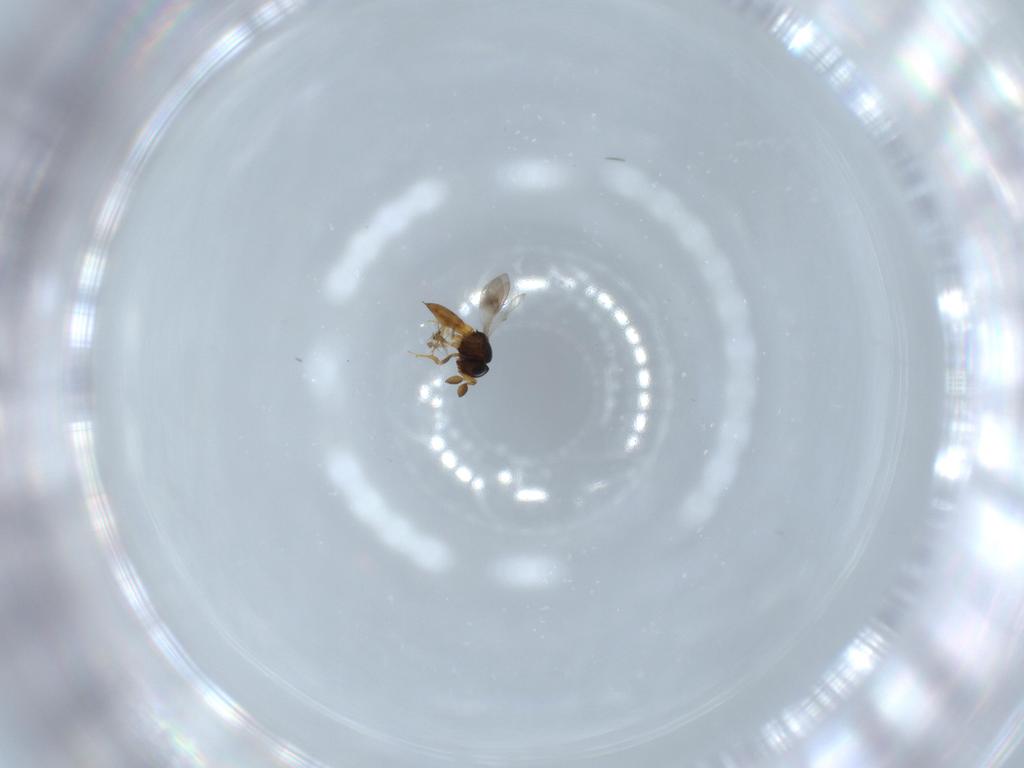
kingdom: Animalia
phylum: Arthropoda
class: Insecta
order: Hymenoptera
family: Scelionidae
